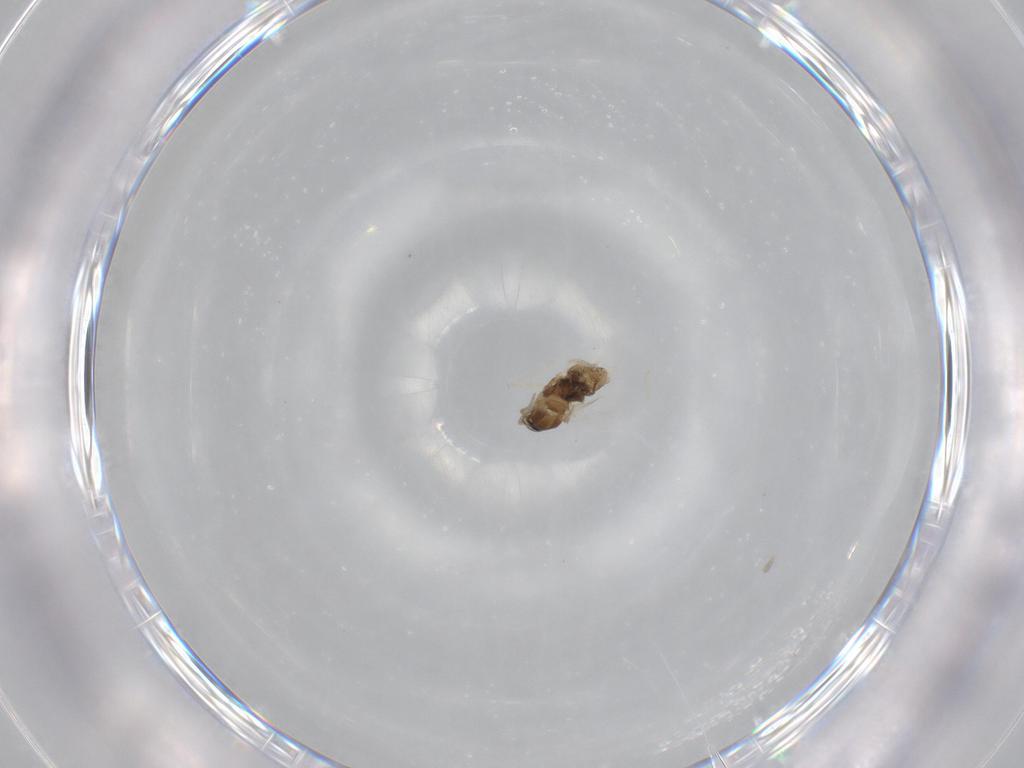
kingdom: Animalia
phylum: Arthropoda
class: Insecta
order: Diptera
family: Cecidomyiidae
